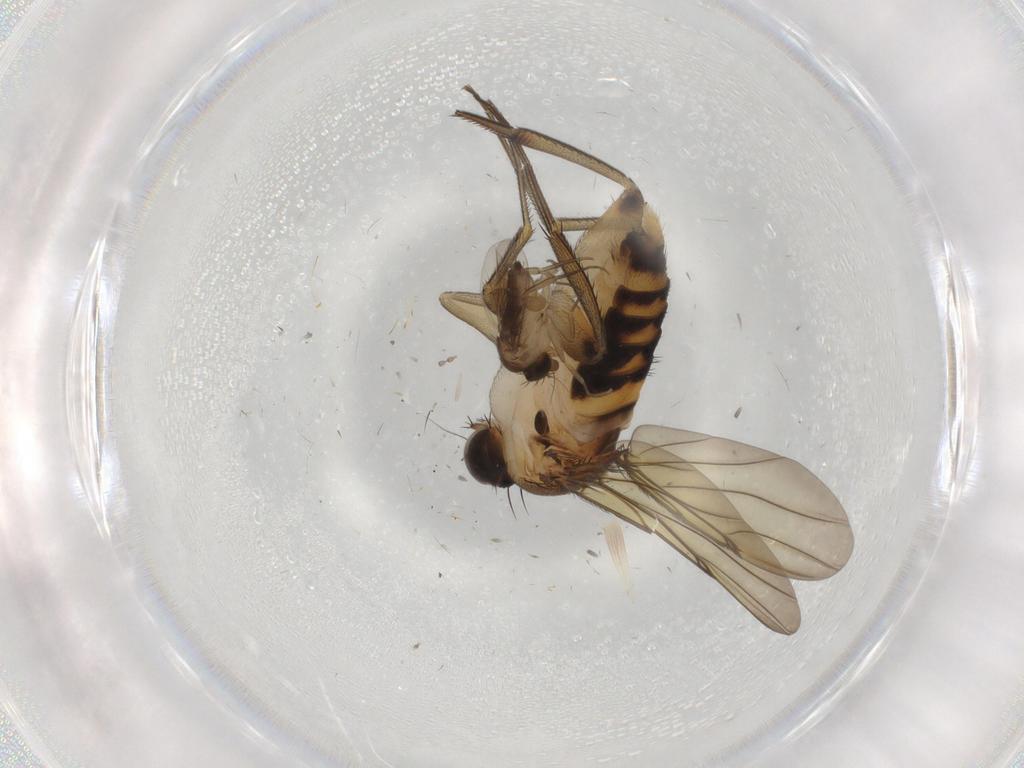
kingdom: Animalia
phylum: Arthropoda
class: Insecta
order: Diptera
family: Phoridae
